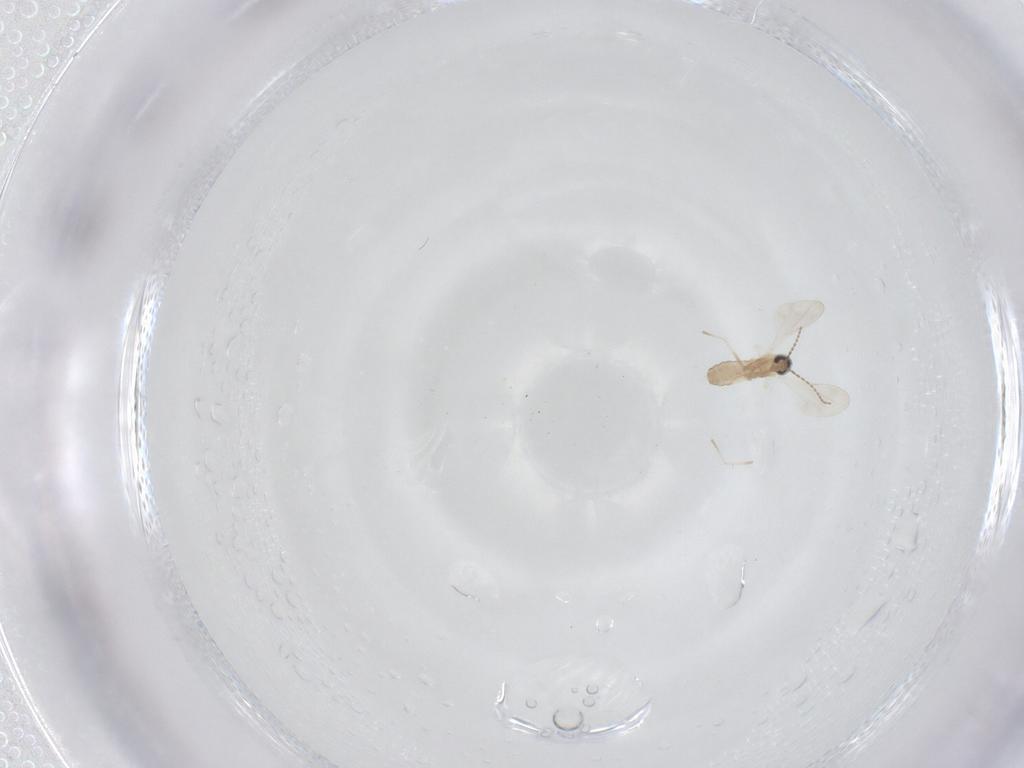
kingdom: Animalia
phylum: Arthropoda
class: Insecta
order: Diptera
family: Cecidomyiidae
